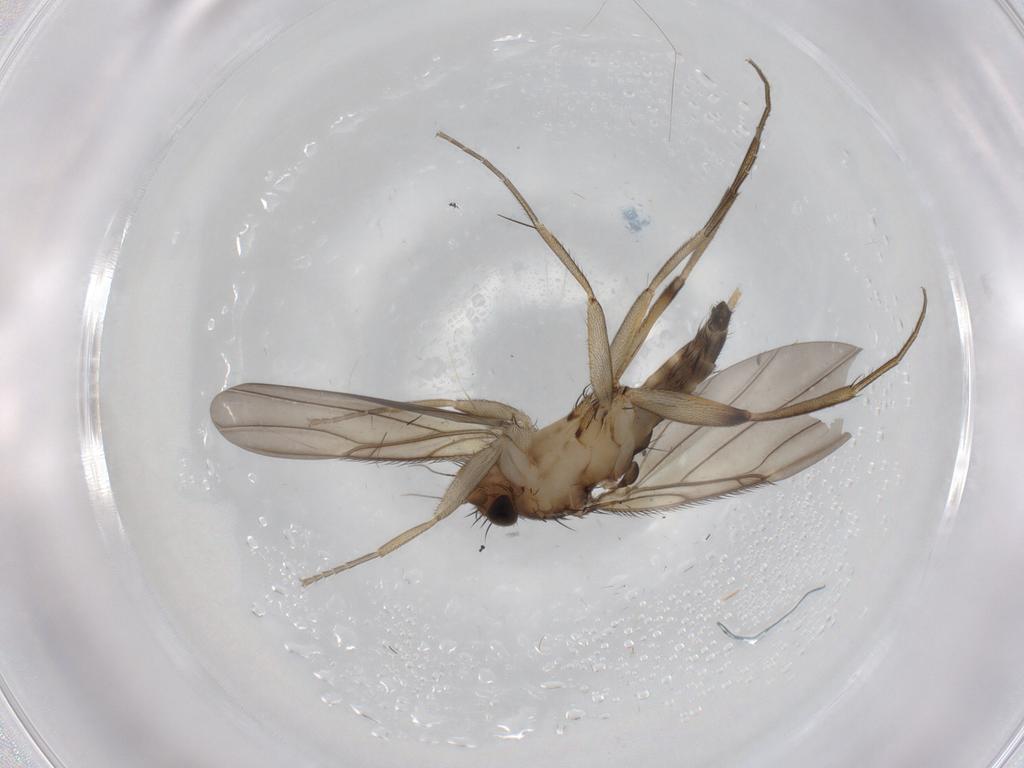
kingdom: Animalia
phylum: Arthropoda
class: Insecta
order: Diptera
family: Phoridae
